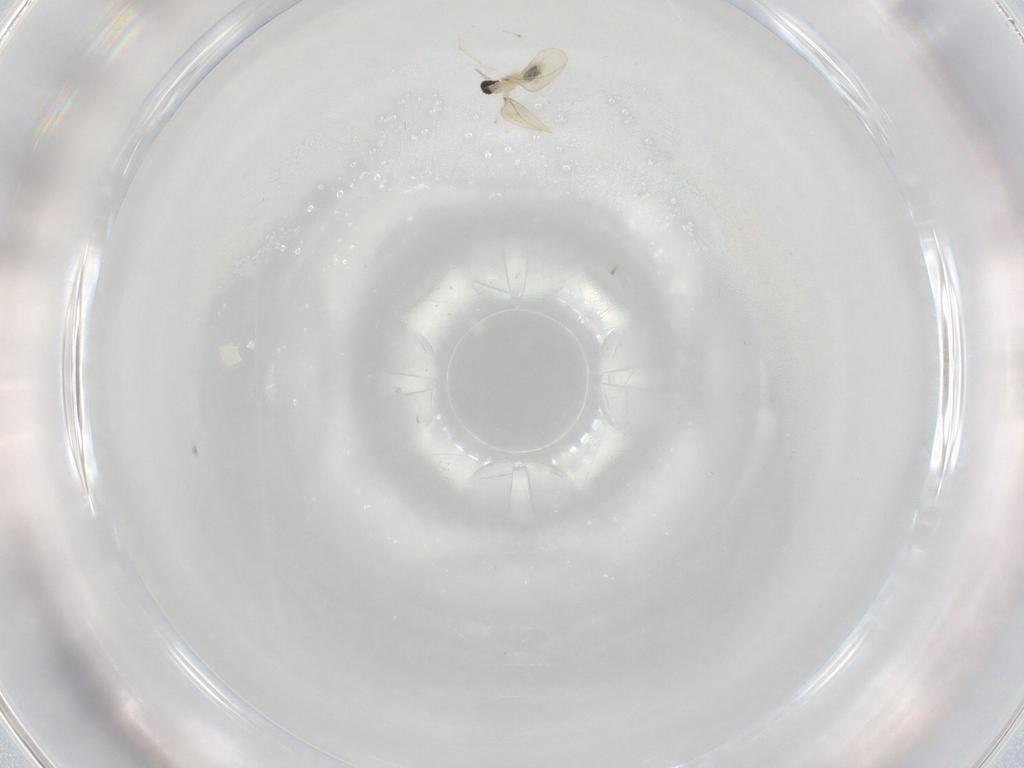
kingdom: Animalia
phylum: Arthropoda
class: Insecta
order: Diptera
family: Cecidomyiidae
